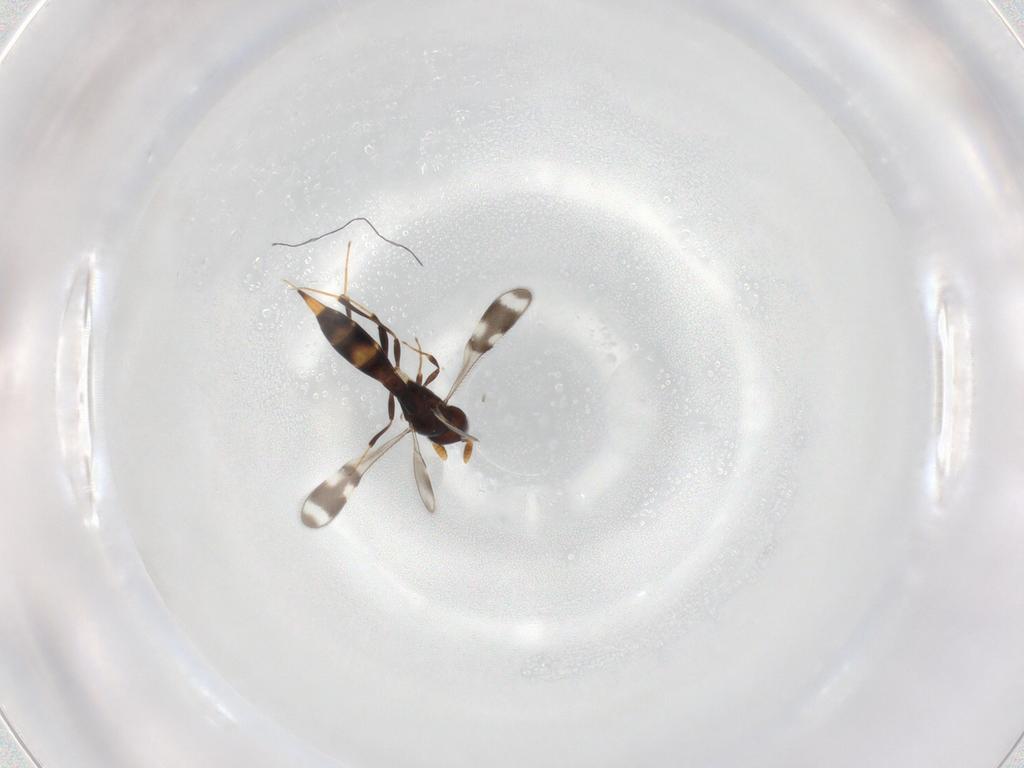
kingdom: Animalia
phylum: Arthropoda
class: Insecta
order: Hymenoptera
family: Scelionidae
